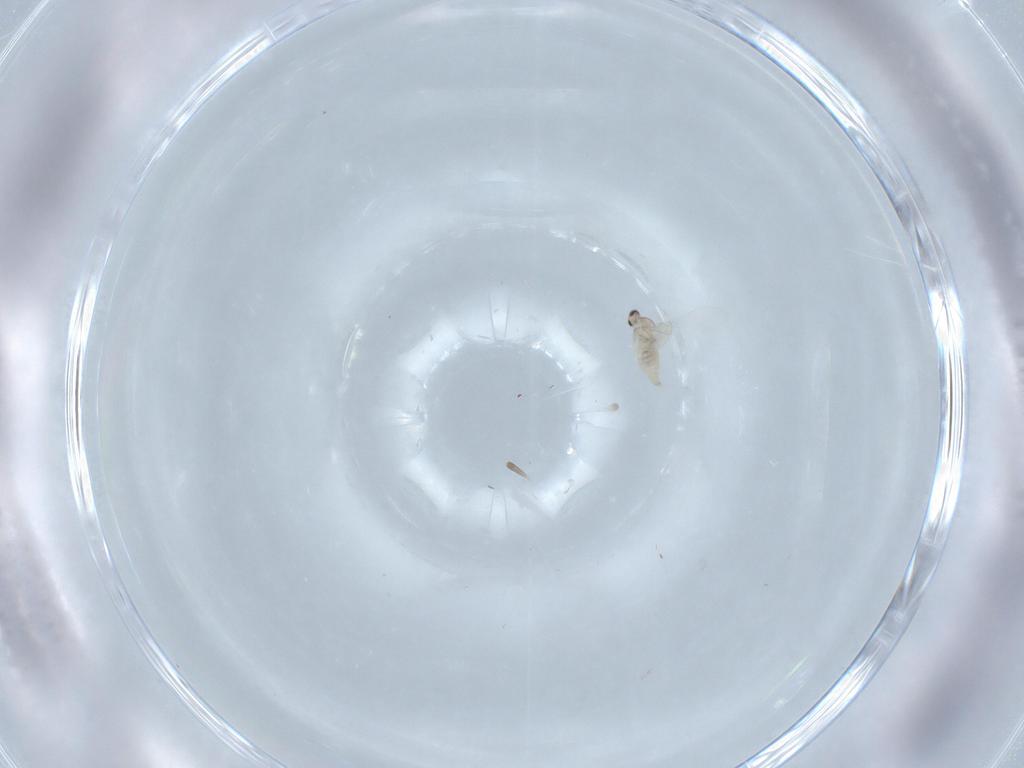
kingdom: Animalia
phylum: Arthropoda
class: Insecta
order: Diptera
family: Cecidomyiidae
